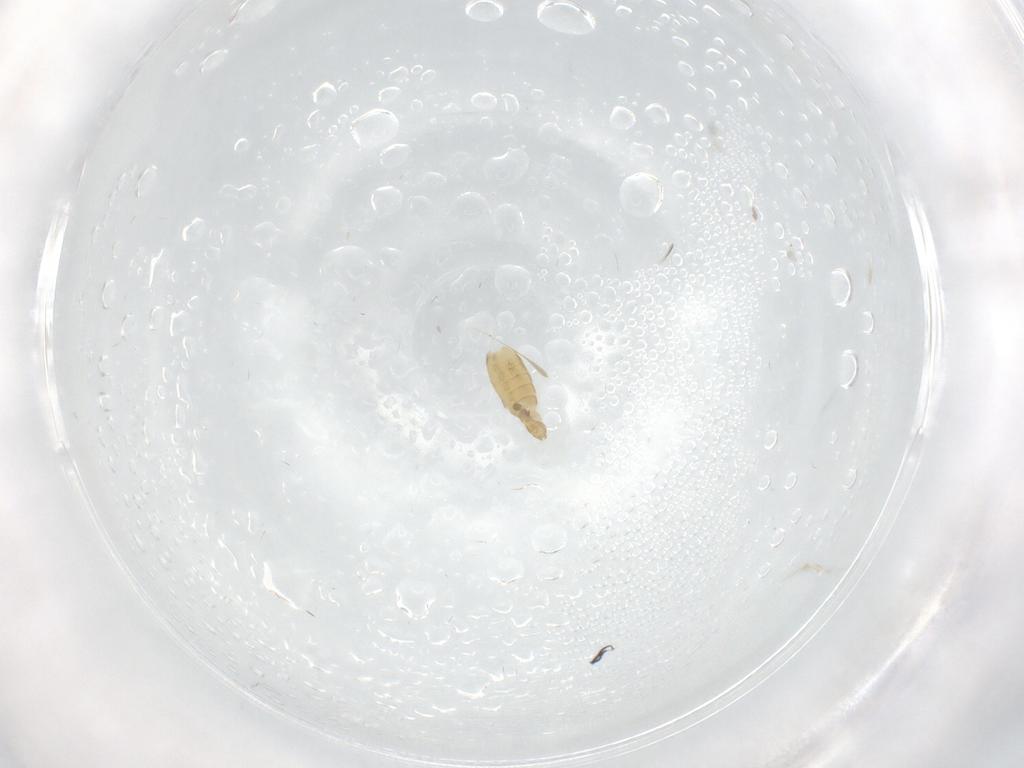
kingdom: Animalia
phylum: Arthropoda
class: Insecta
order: Diptera
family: Chironomidae
